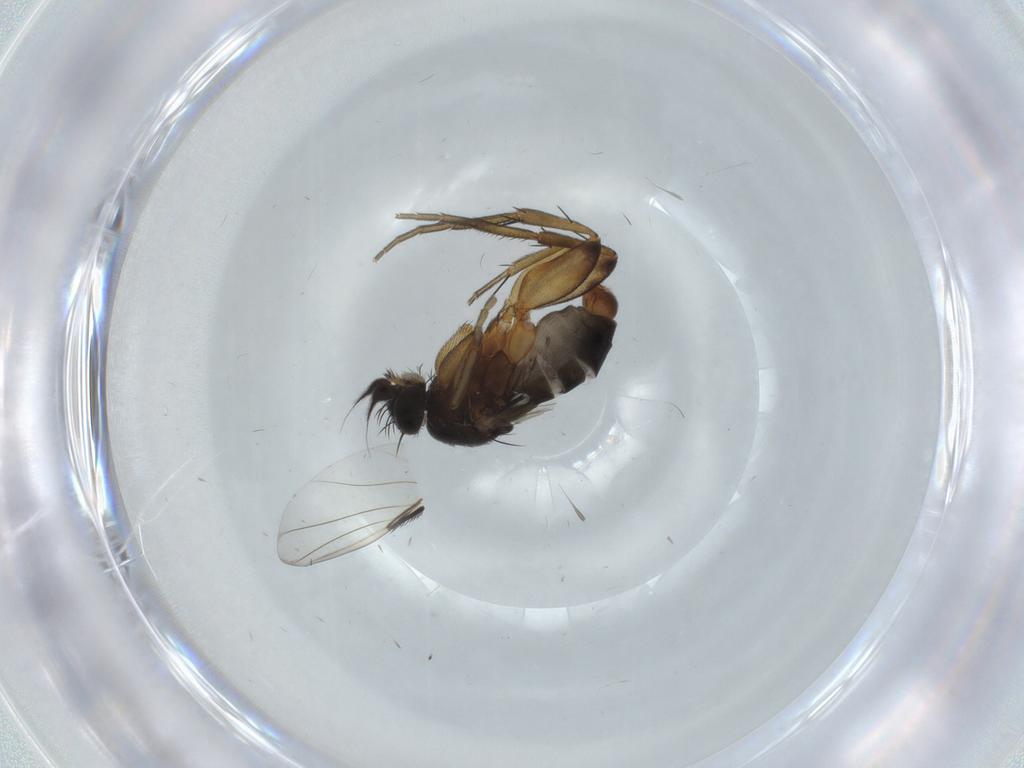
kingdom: Animalia
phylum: Arthropoda
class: Insecta
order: Diptera
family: Phoridae
